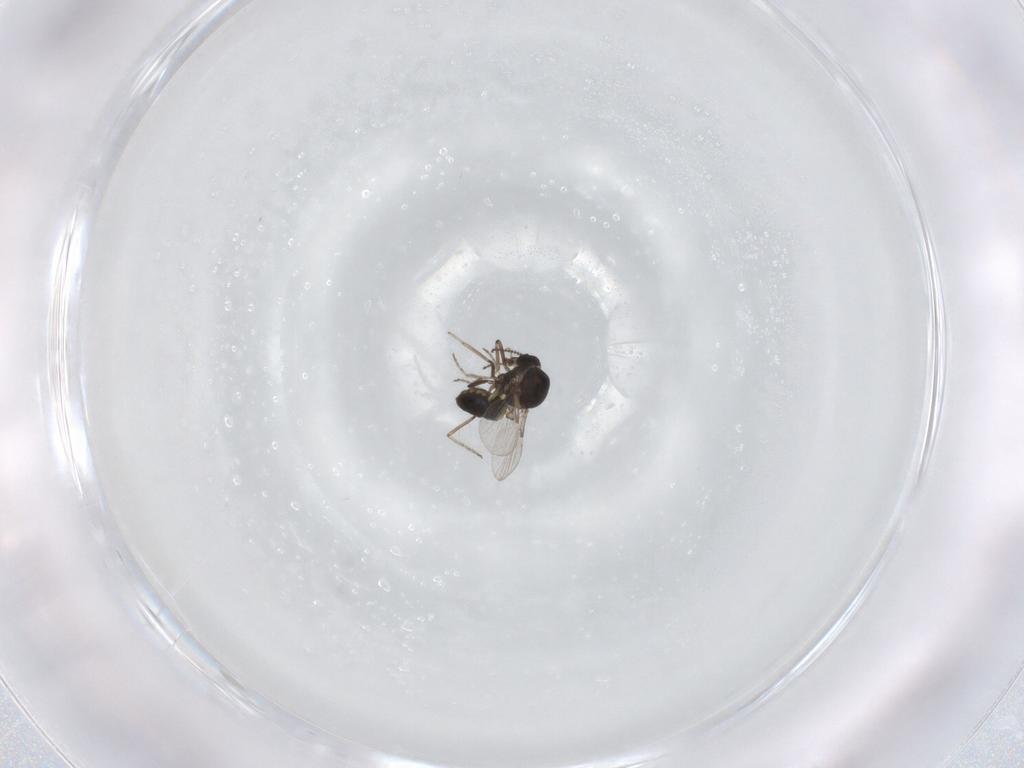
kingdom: Animalia
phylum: Arthropoda
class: Insecta
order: Diptera
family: Ceratopogonidae
